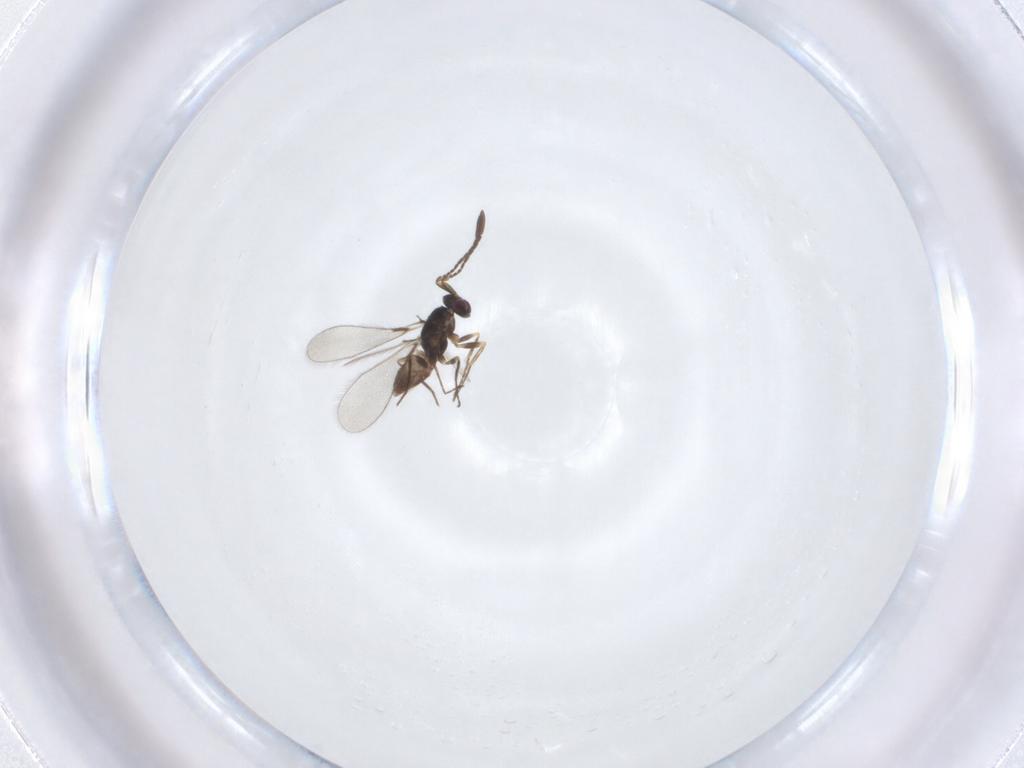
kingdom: Animalia
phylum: Arthropoda
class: Insecta
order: Hymenoptera
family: Mymaridae
